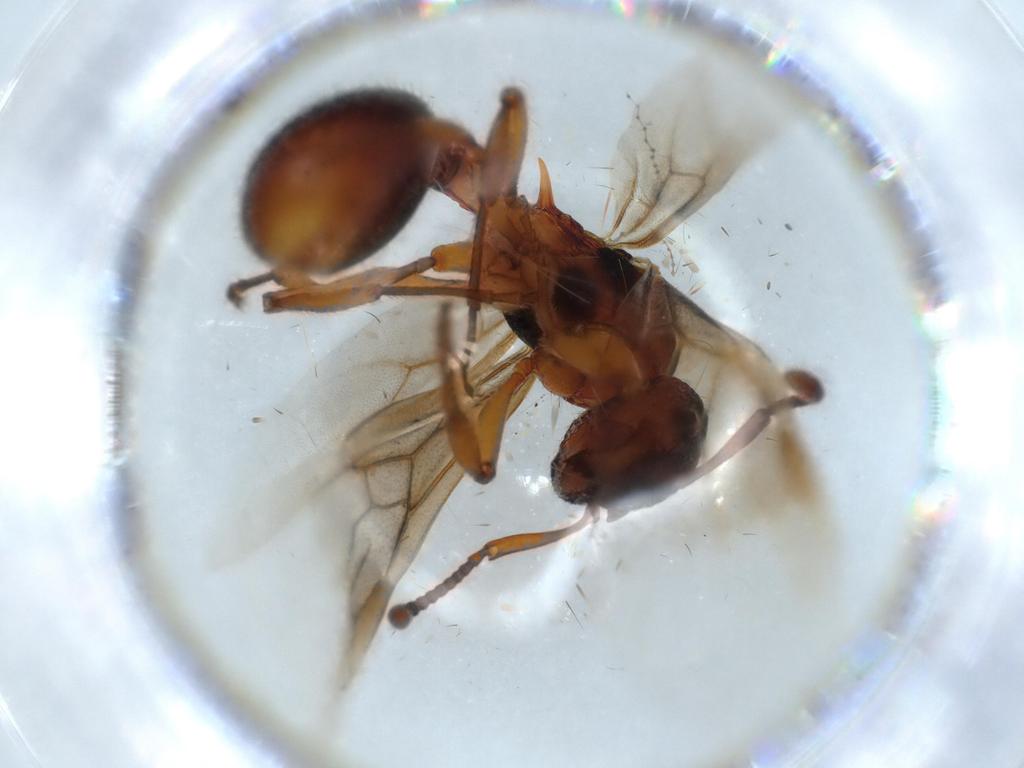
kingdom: Animalia
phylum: Arthropoda
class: Insecta
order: Hymenoptera
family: Formicidae
